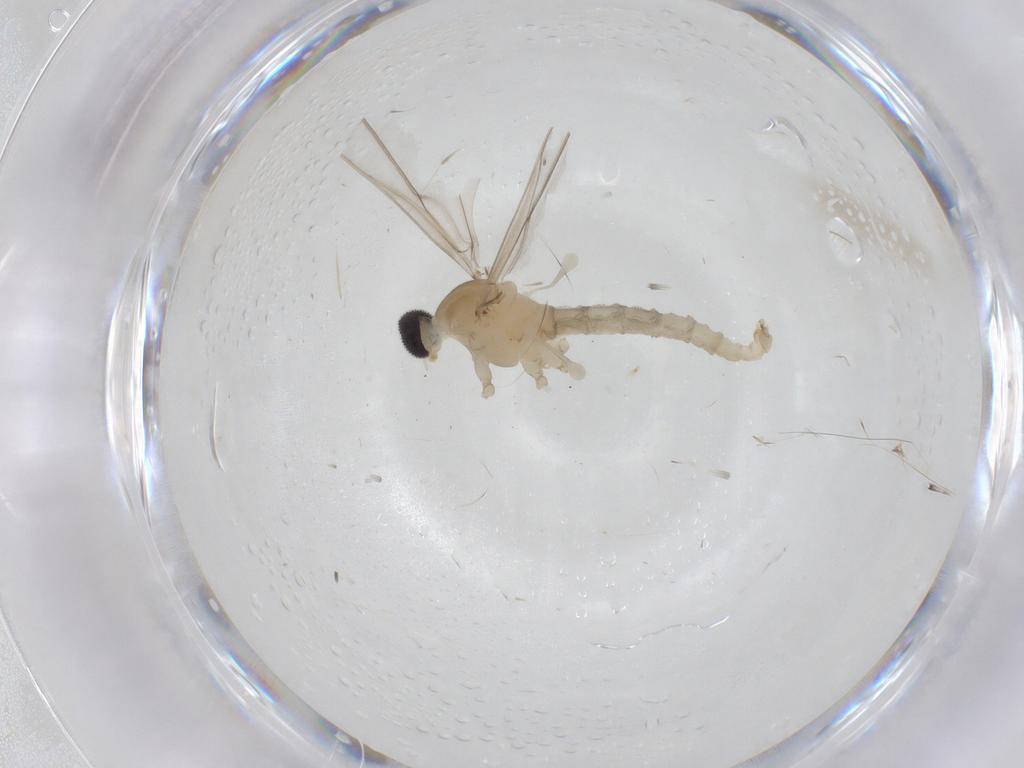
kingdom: Animalia
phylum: Arthropoda
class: Insecta
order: Diptera
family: Cecidomyiidae
